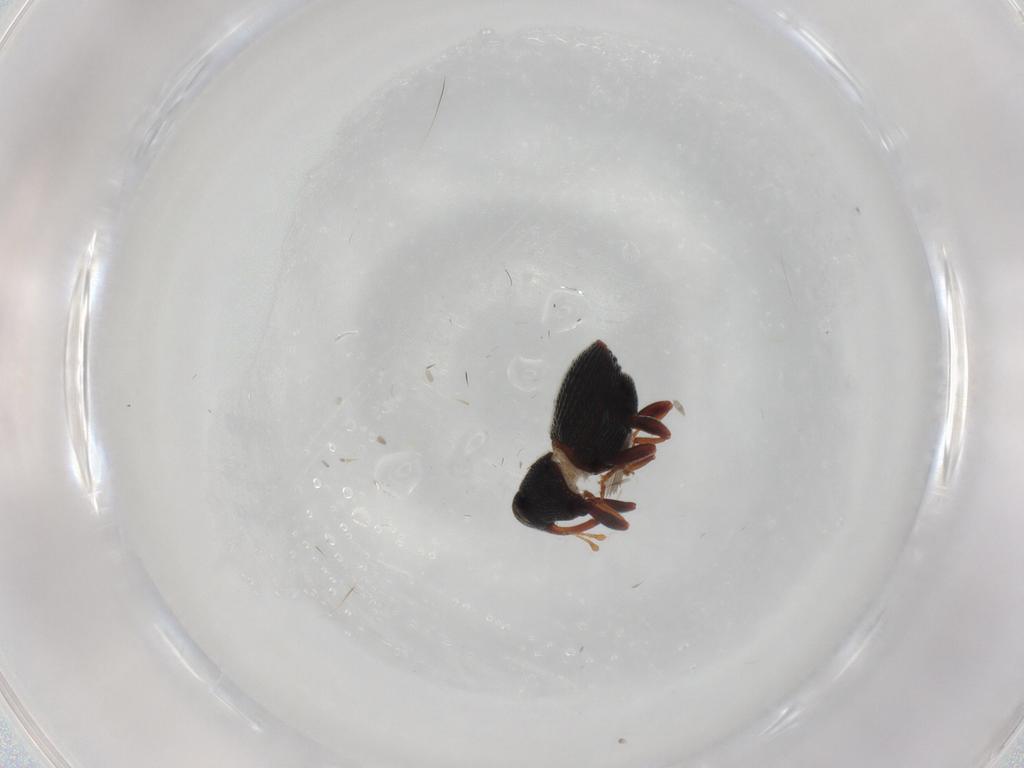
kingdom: Animalia
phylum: Arthropoda
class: Insecta
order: Coleoptera
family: Curculionidae
